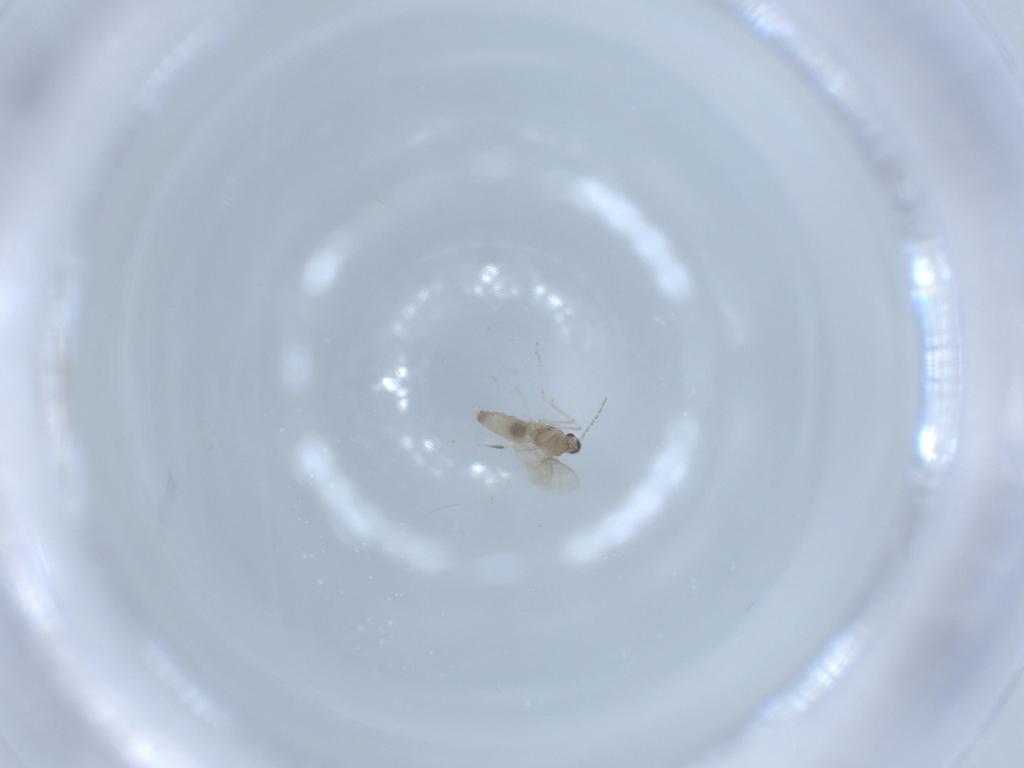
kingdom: Animalia
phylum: Arthropoda
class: Insecta
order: Diptera
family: Cecidomyiidae
